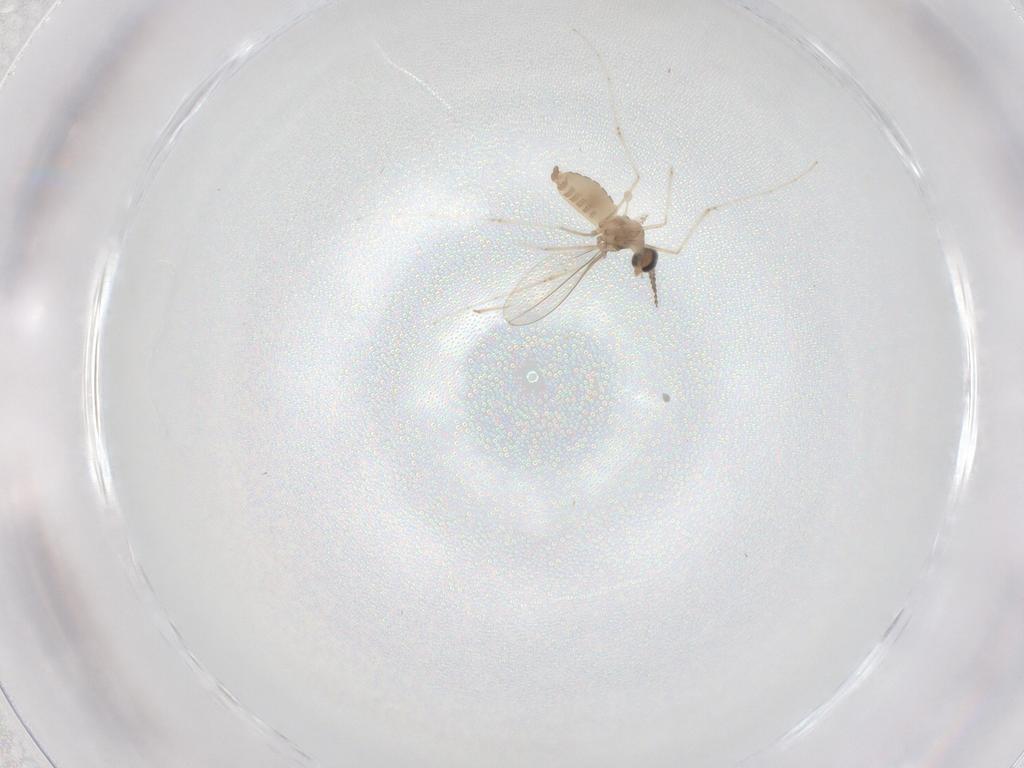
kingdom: Animalia
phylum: Arthropoda
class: Insecta
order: Diptera
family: Cecidomyiidae
